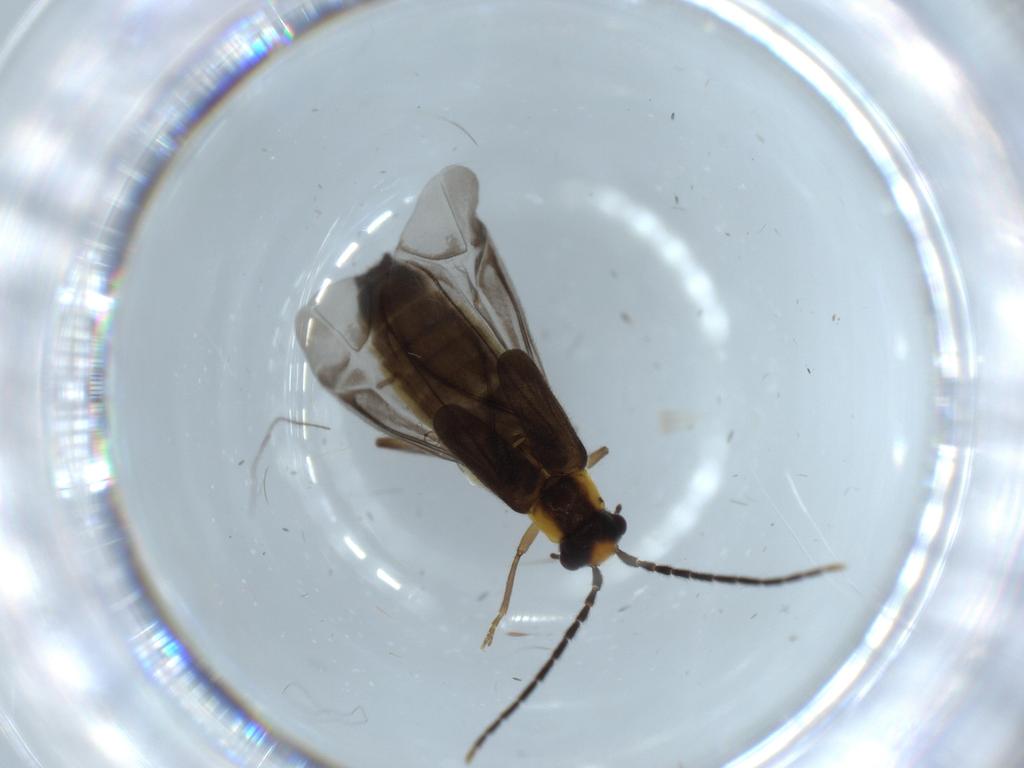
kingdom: Animalia
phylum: Arthropoda
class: Insecta
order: Coleoptera
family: Cantharidae
